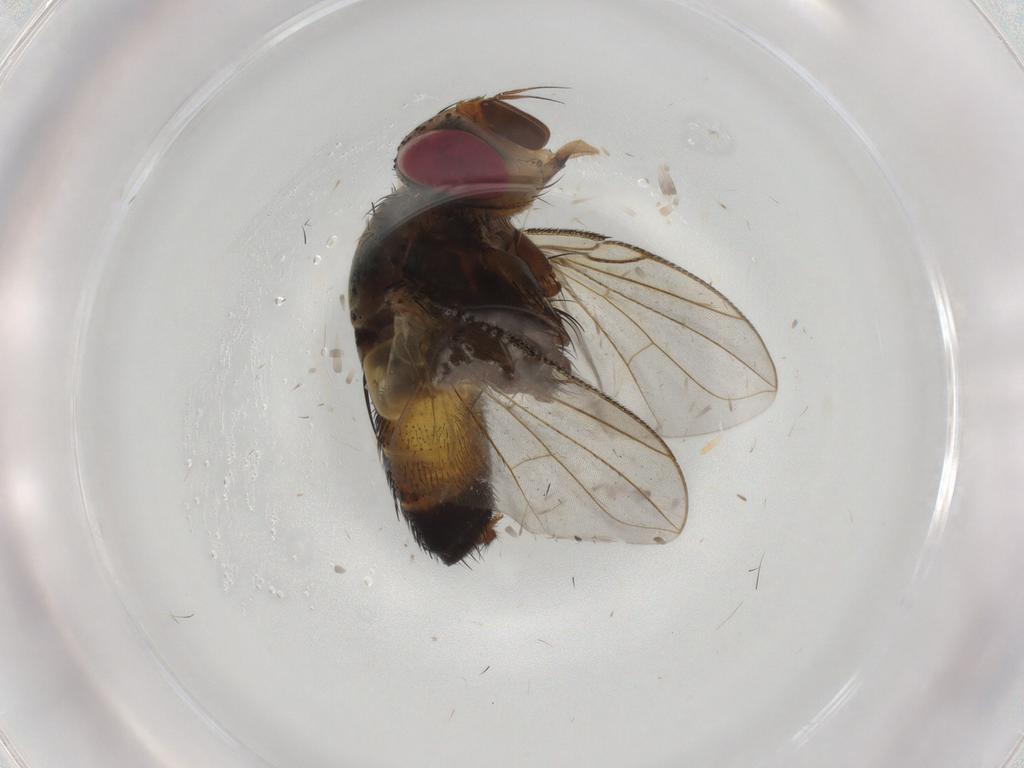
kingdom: Animalia
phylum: Arthropoda
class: Insecta
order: Diptera
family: Tachinidae
